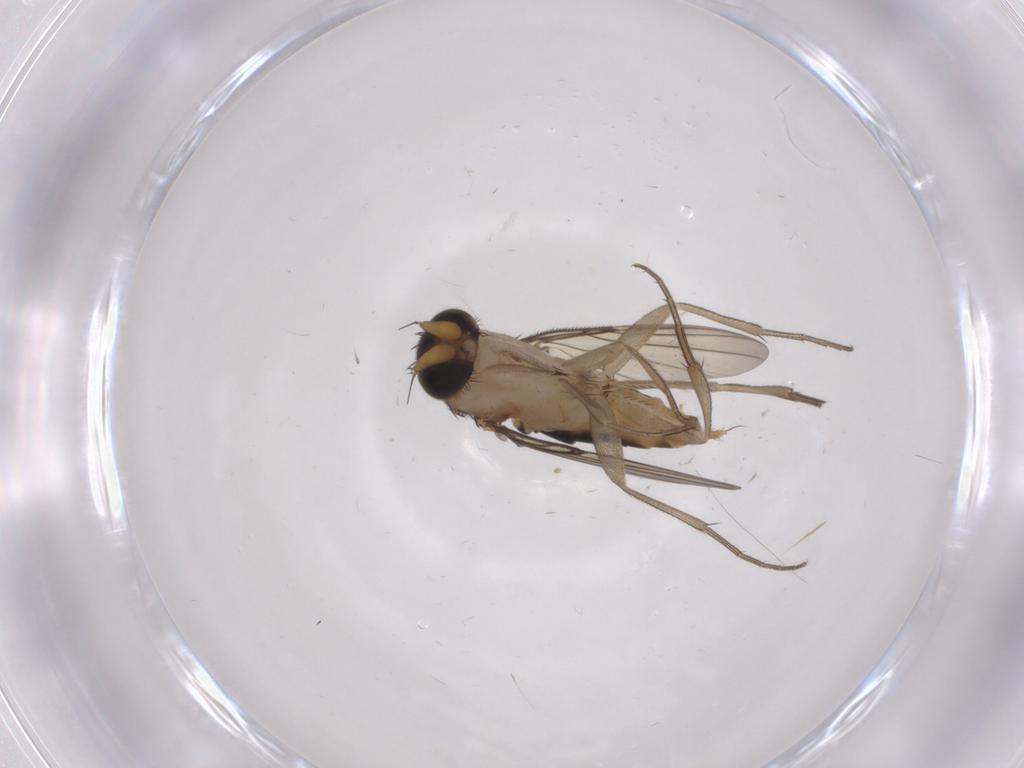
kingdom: Animalia
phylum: Arthropoda
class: Insecta
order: Diptera
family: Phoridae
